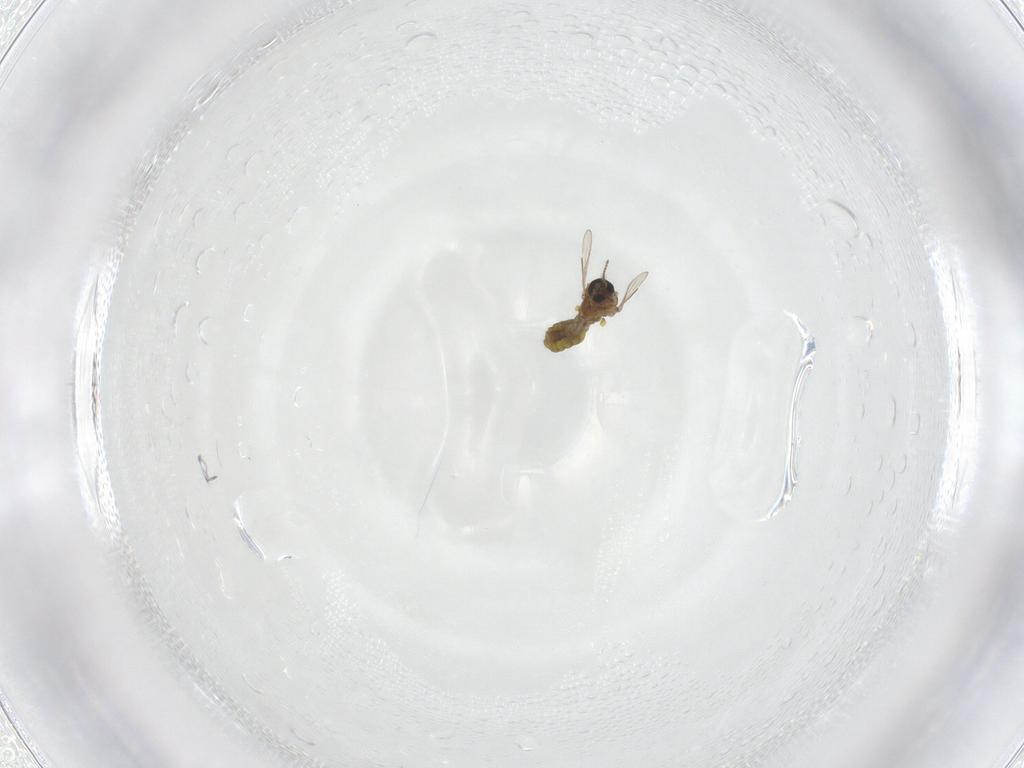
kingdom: Animalia
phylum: Arthropoda
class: Insecta
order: Diptera
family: Ceratopogonidae
